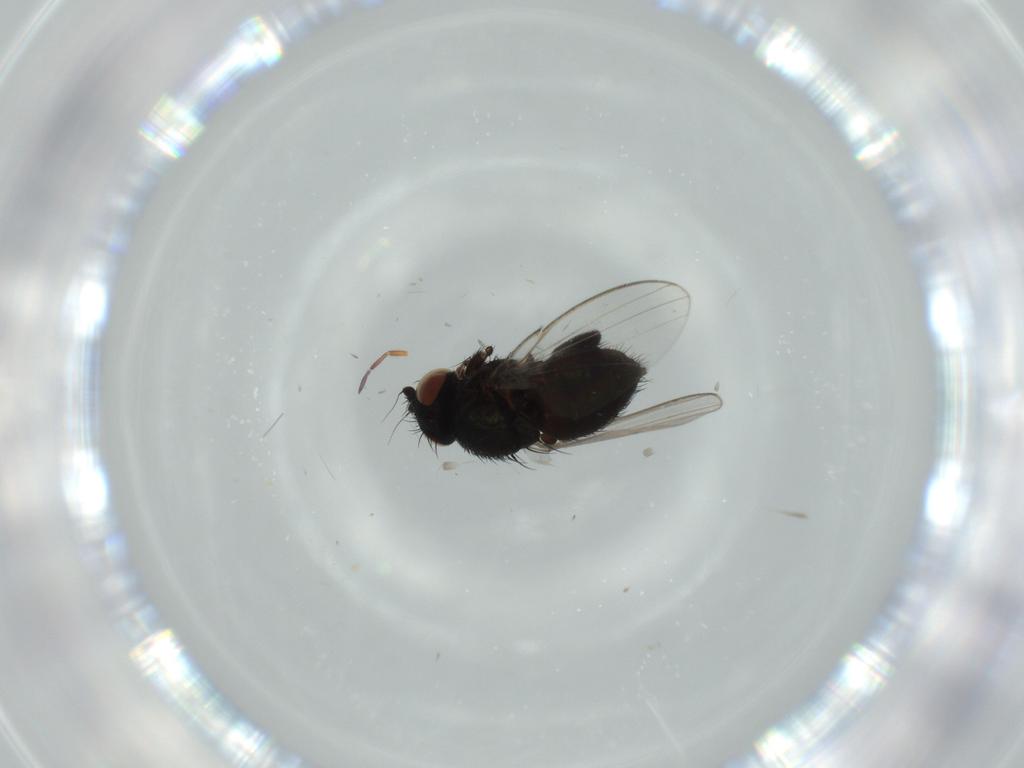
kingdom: Animalia
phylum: Arthropoda
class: Insecta
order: Diptera
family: Milichiidae
